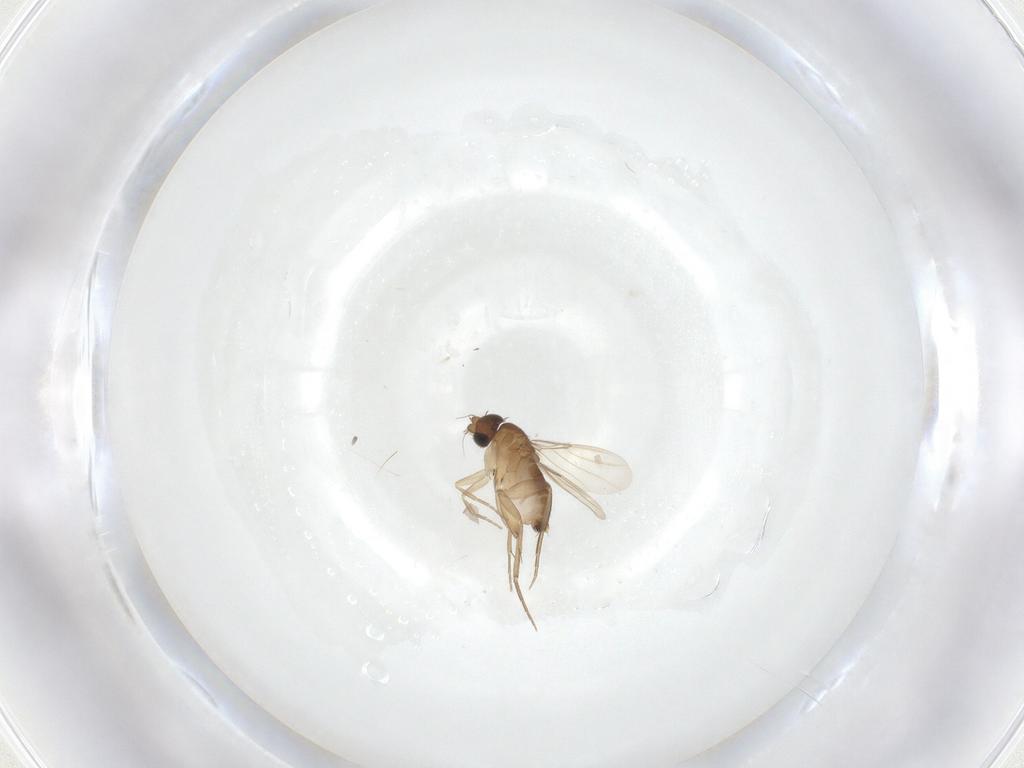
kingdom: Animalia
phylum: Arthropoda
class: Insecta
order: Diptera
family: Phoridae
